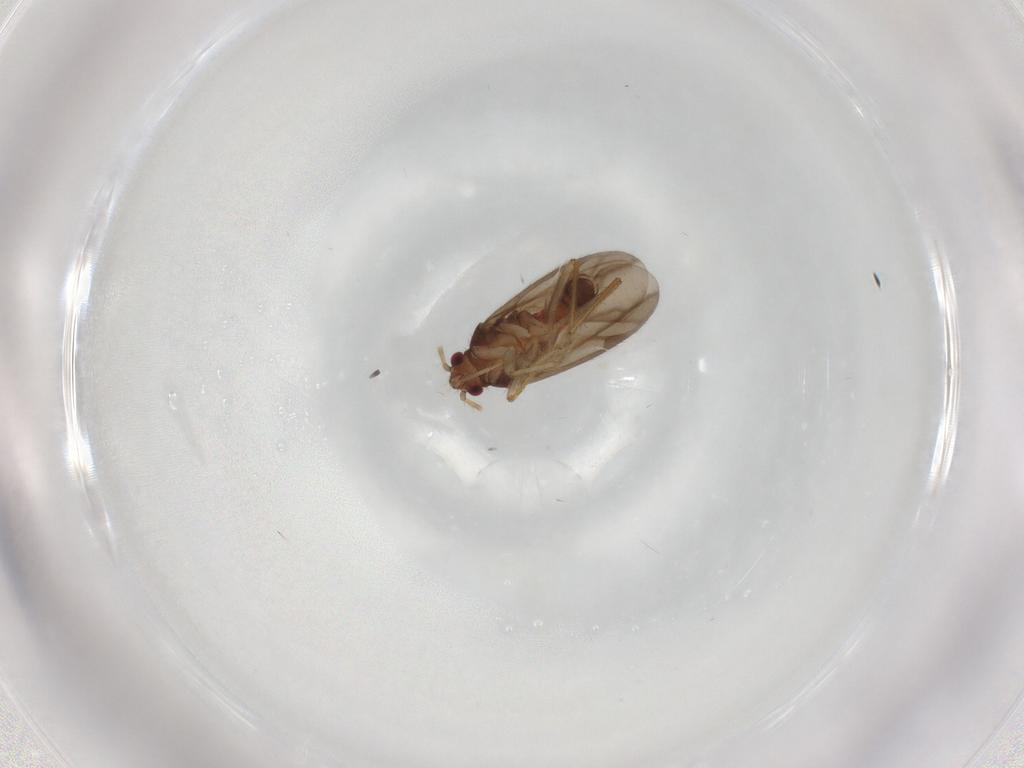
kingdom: Animalia
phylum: Arthropoda
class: Insecta
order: Hemiptera
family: Ceratocombidae
